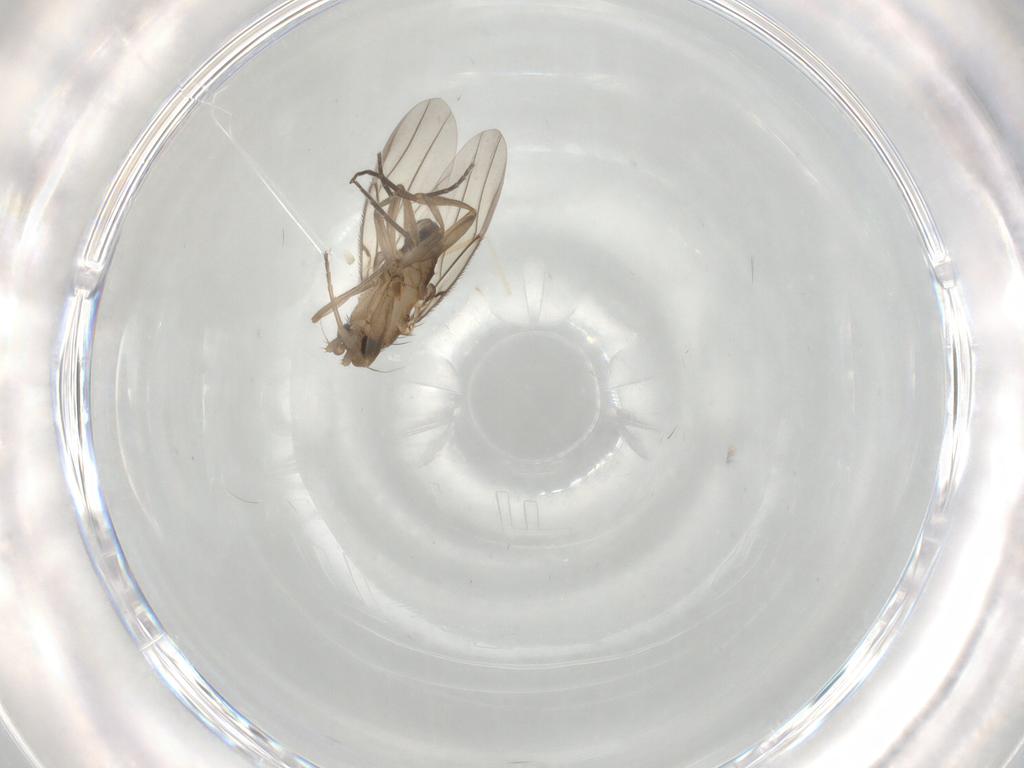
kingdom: Animalia
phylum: Arthropoda
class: Insecta
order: Diptera
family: Phoridae
